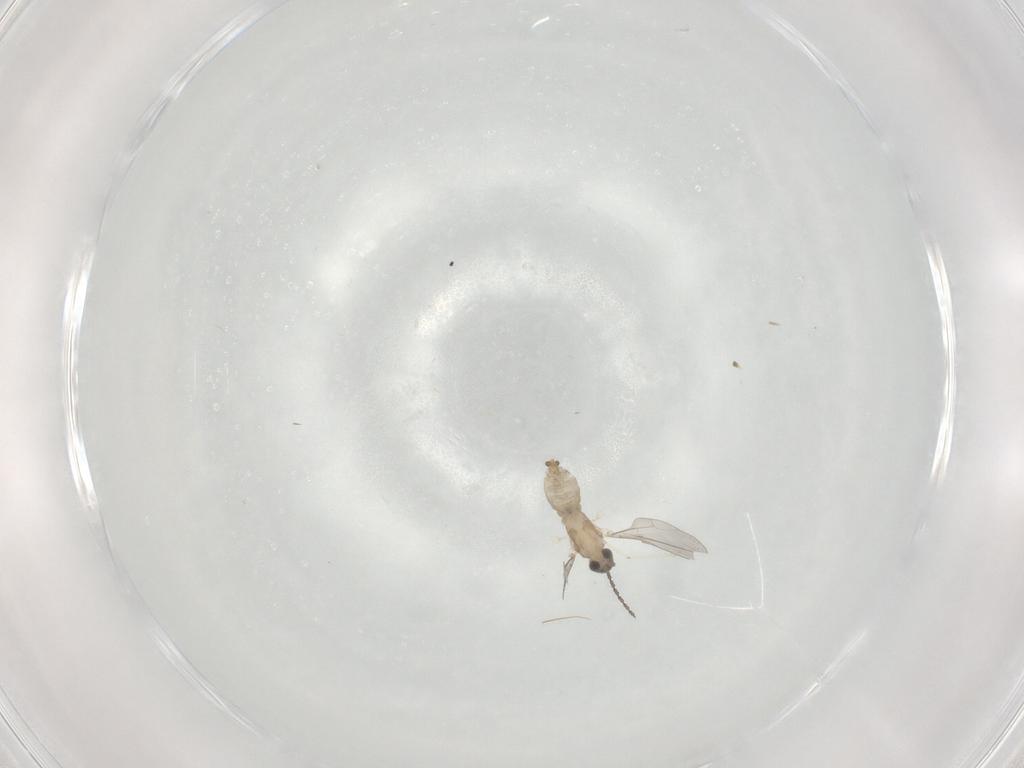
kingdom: Animalia
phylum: Arthropoda
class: Insecta
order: Diptera
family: Cecidomyiidae
